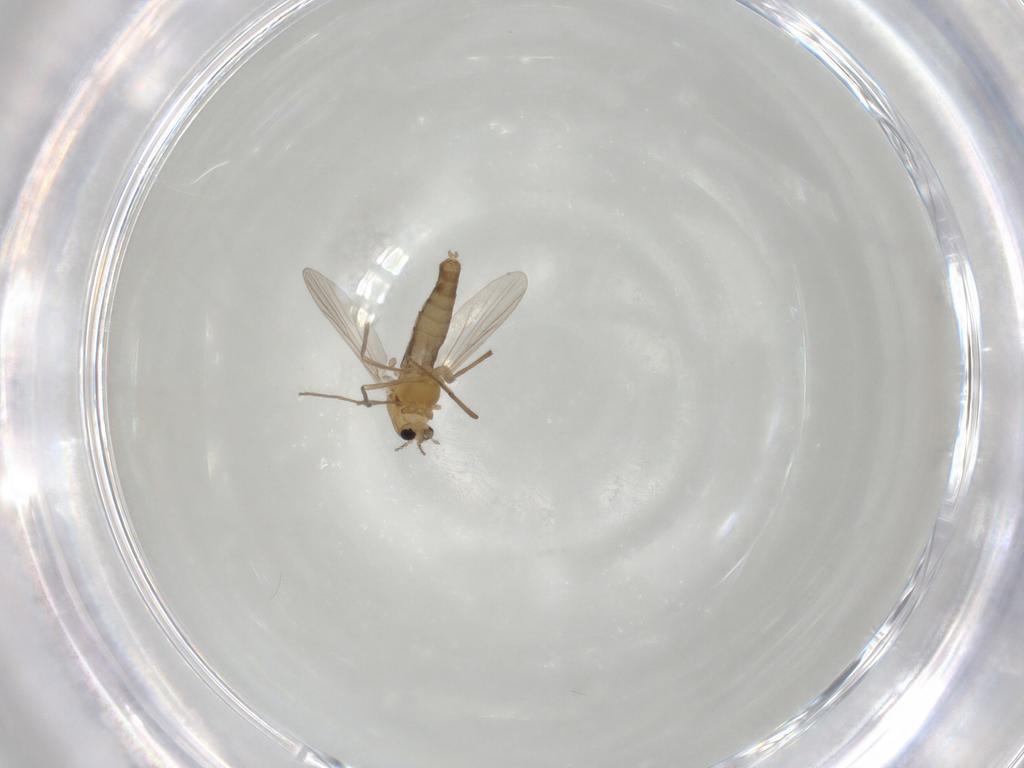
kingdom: Animalia
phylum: Arthropoda
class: Insecta
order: Diptera
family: Chironomidae
